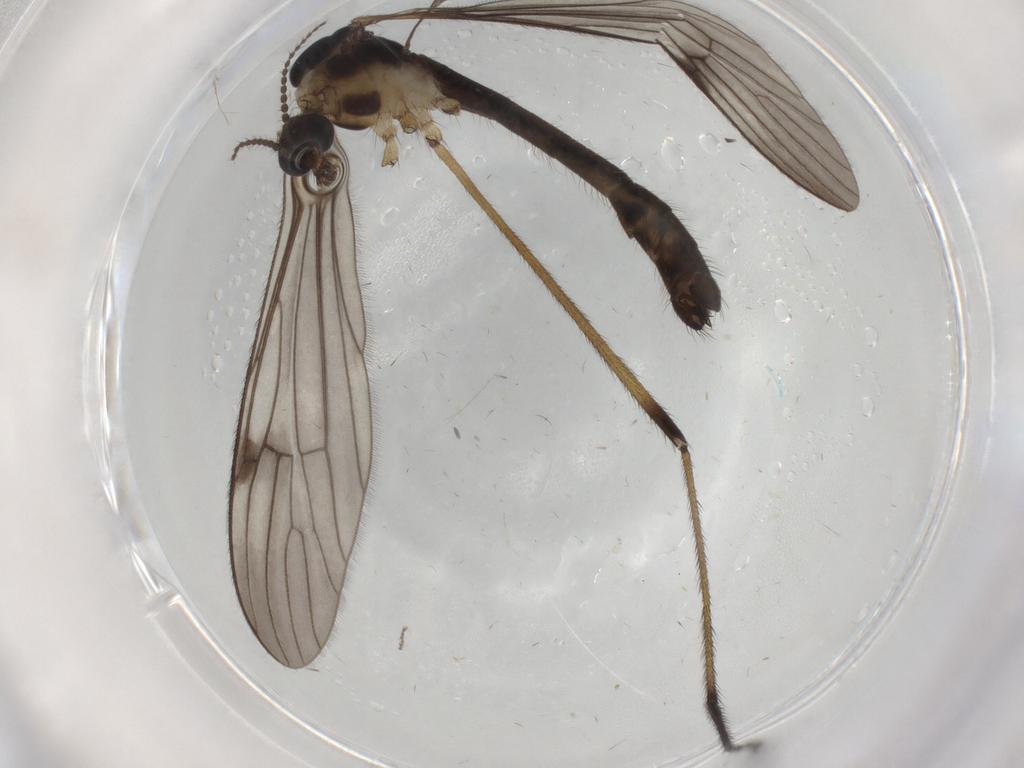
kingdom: Animalia
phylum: Arthropoda
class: Insecta
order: Diptera
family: Limoniidae
